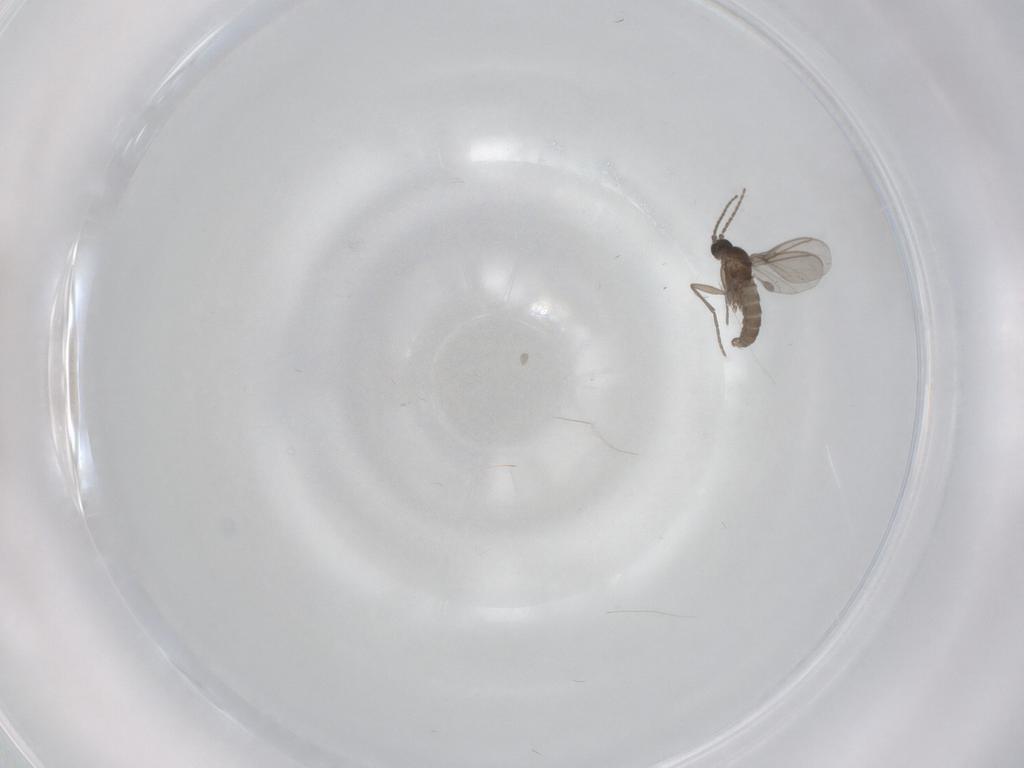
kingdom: Animalia
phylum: Arthropoda
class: Insecta
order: Diptera
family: Sciaridae
